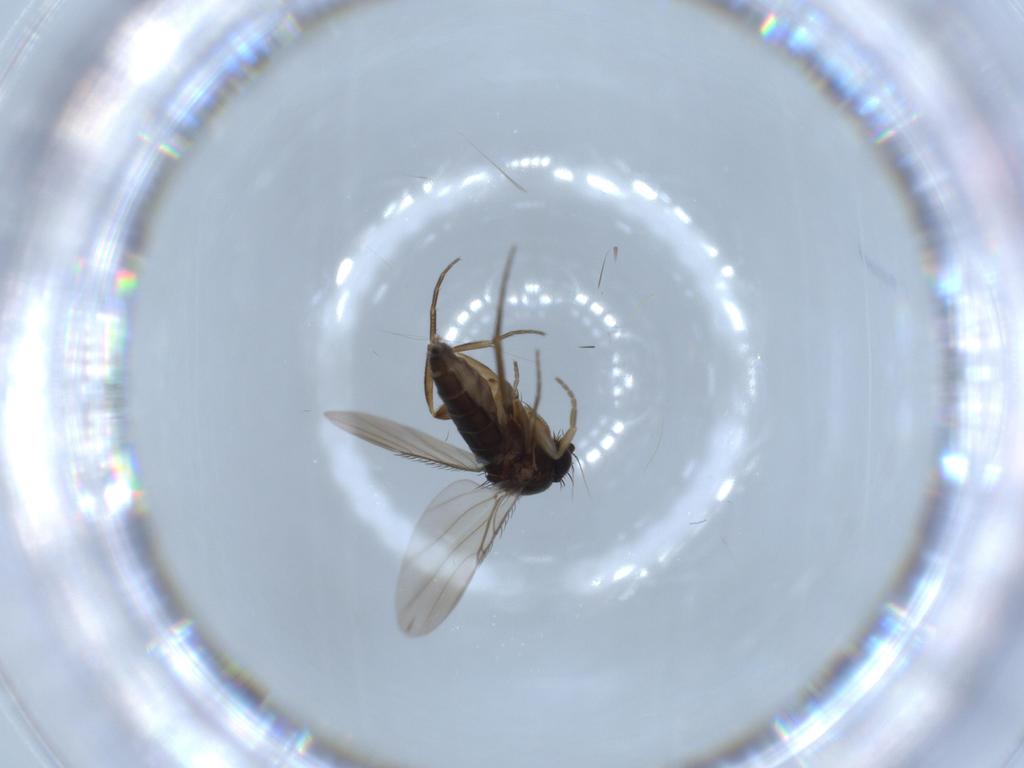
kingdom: Animalia
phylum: Arthropoda
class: Insecta
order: Diptera
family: Phoridae
